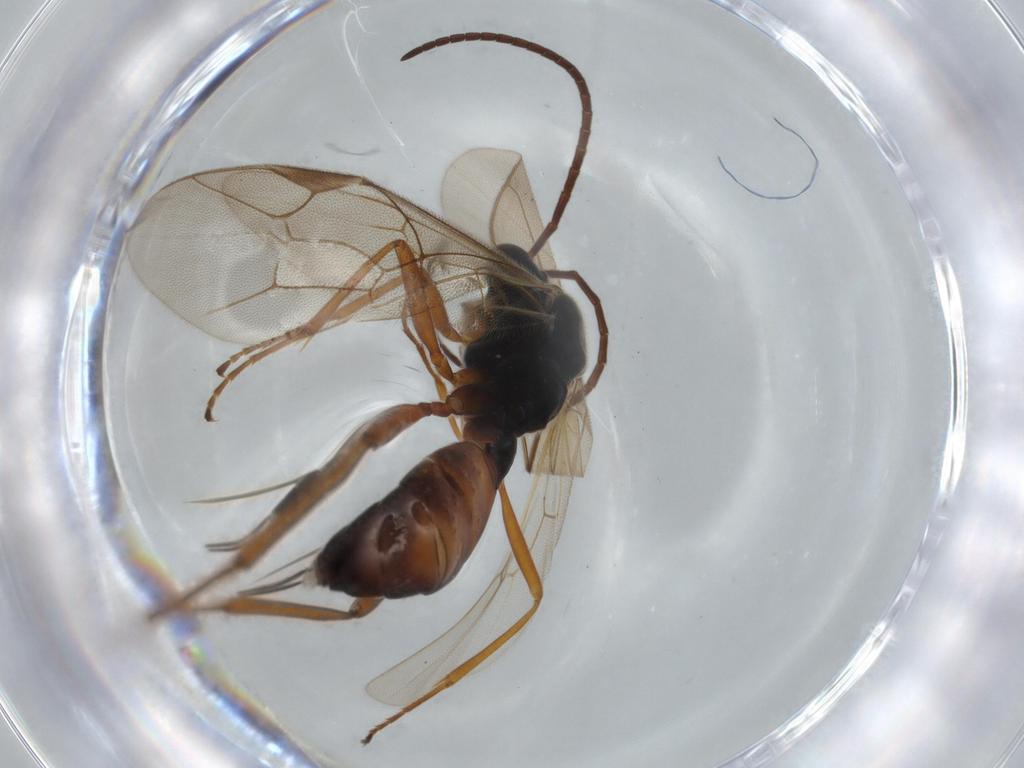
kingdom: Animalia
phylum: Arthropoda
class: Insecta
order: Hymenoptera
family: Ichneumonidae
